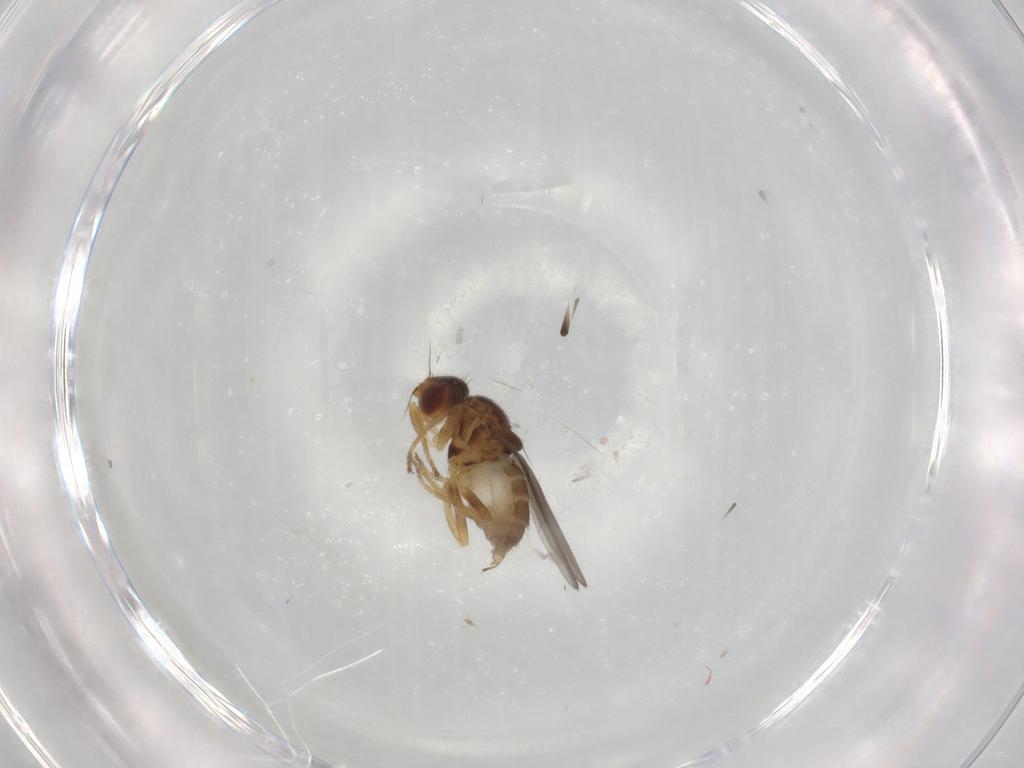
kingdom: Animalia
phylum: Arthropoda
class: Insecta
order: Diptera
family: Chloropidae
